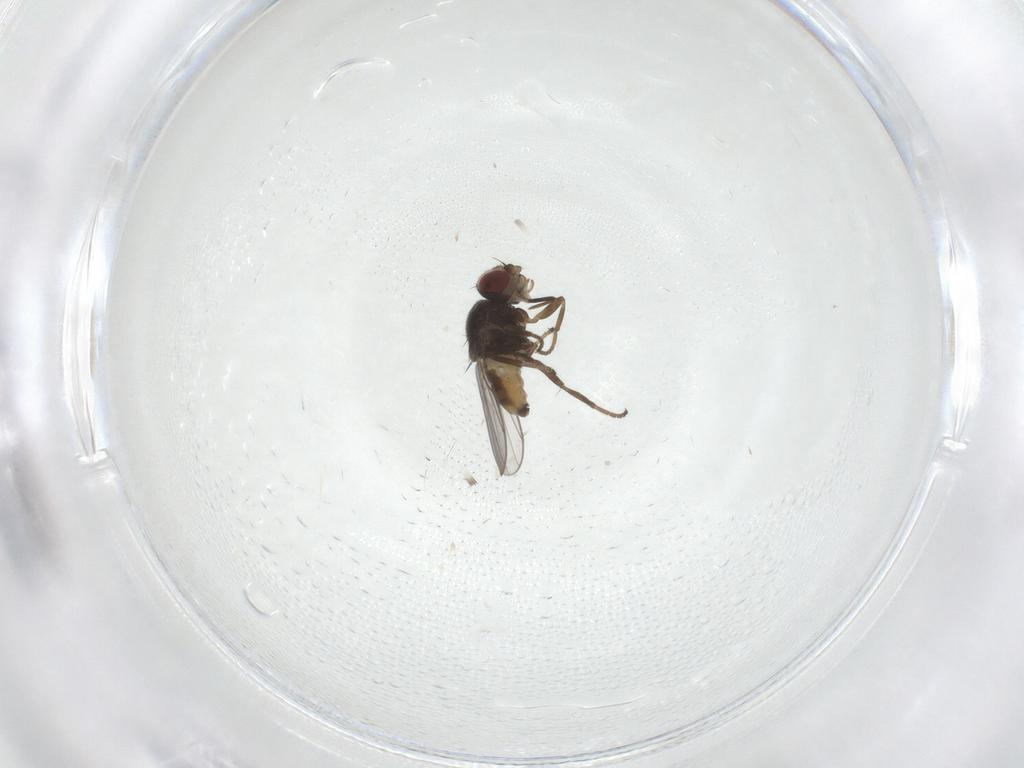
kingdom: Animalia
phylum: Arthropoda
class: Insecta
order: Diptera
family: Chloropidae
